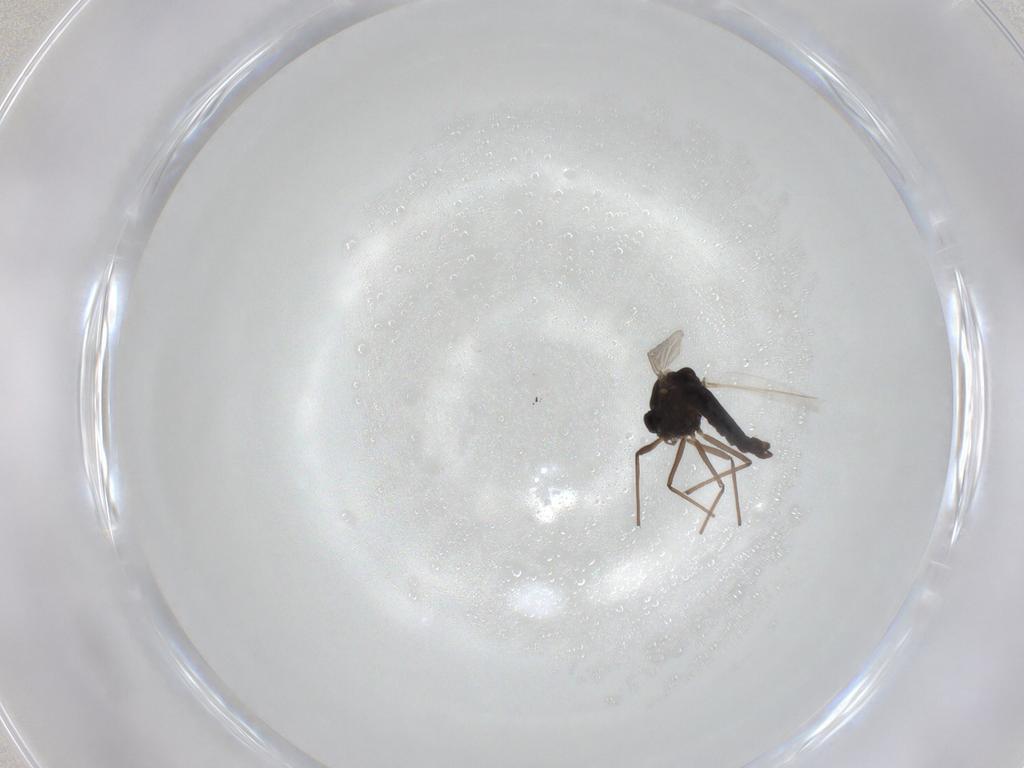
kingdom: Animalia
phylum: Arthropoda
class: Insecta
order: Diptera
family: Chironomidae
